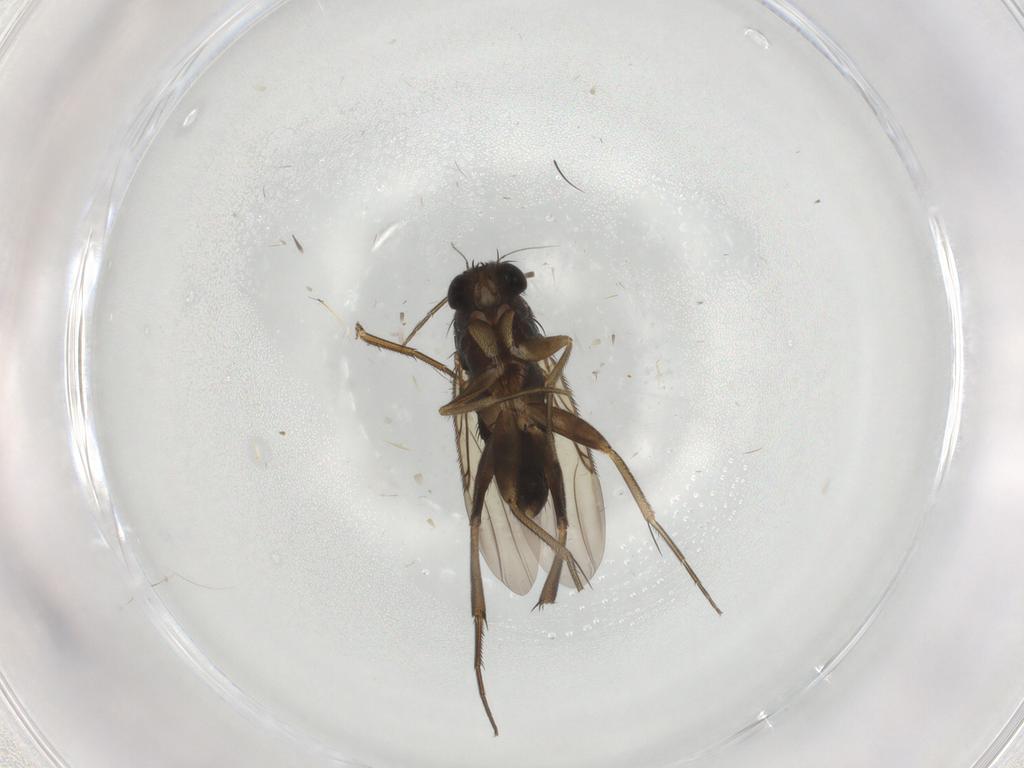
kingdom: Animalia
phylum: Arthropoda
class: Insecta
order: Diptera
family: Phoridae
